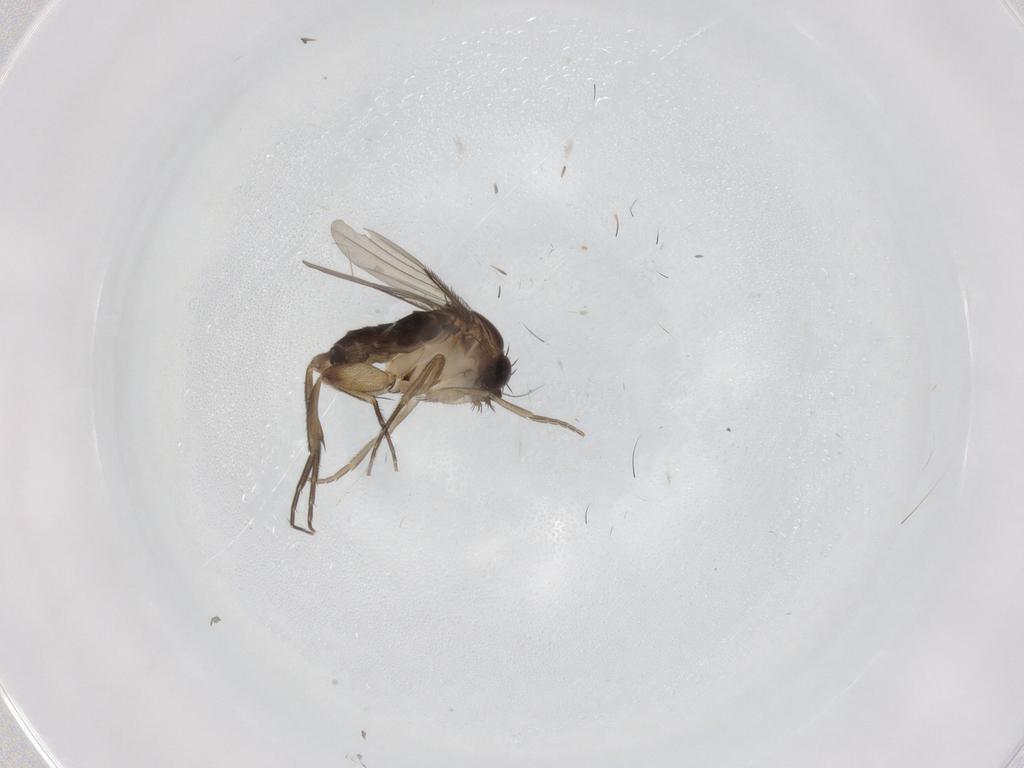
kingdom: Animalia
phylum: Arthropoda
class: Insecta
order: Diptera
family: Phoridae
